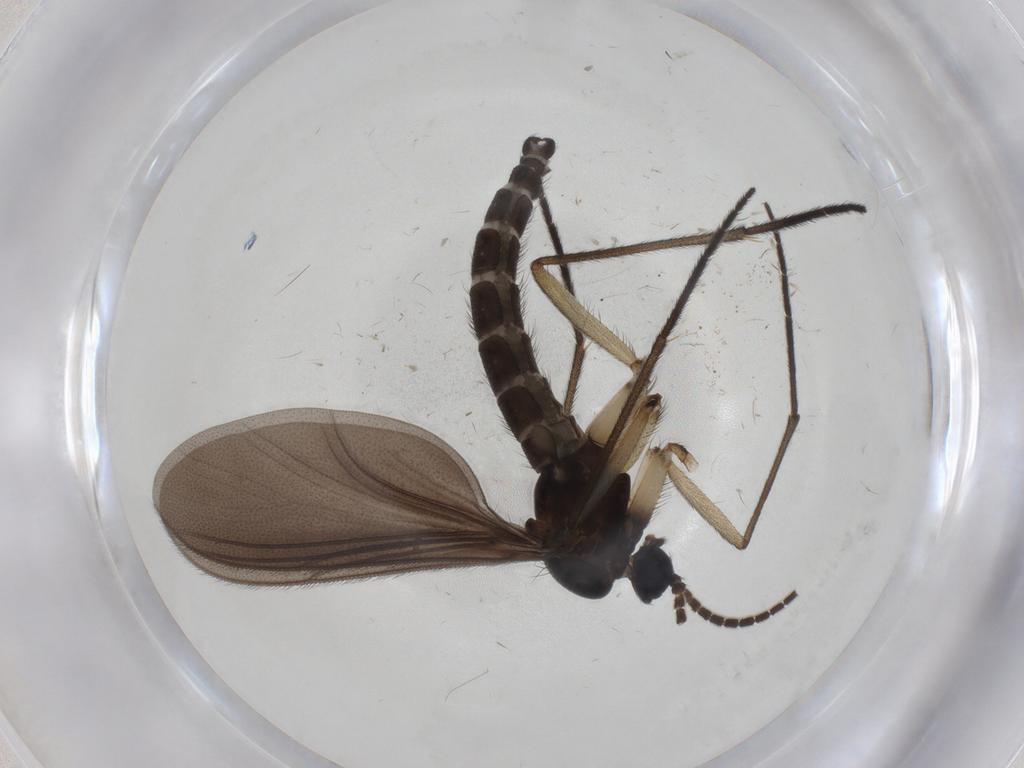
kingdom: Animalia
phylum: Arthropoda
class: Insecta
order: Diptera
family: Sciaridae
